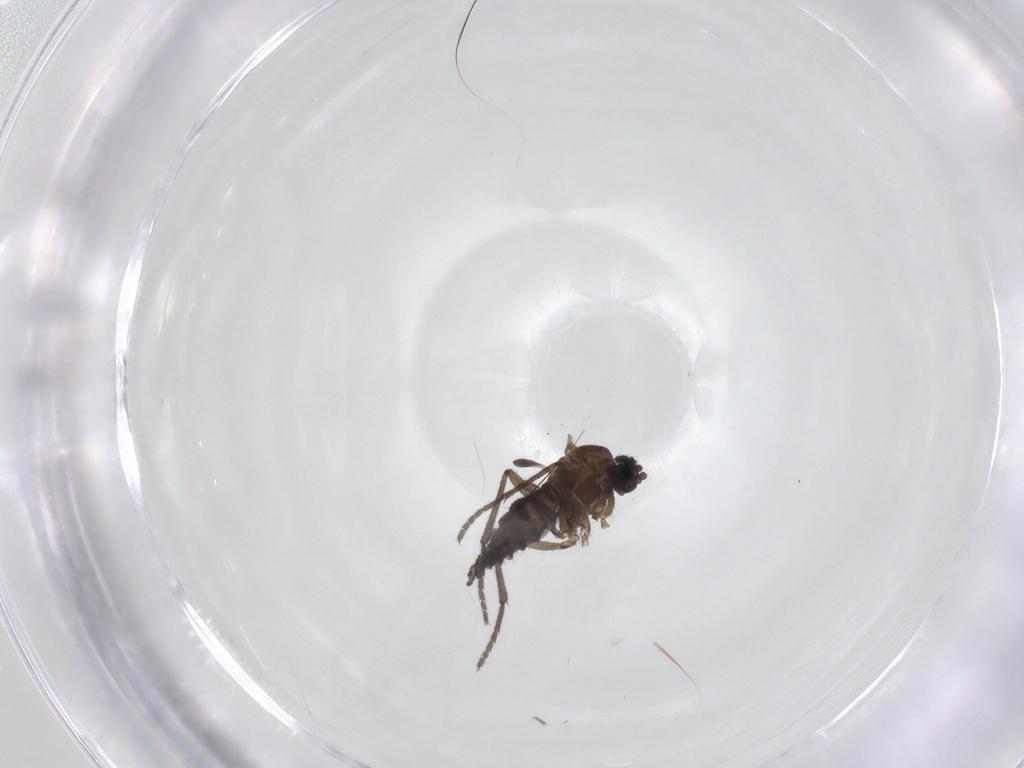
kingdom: Animalia
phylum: Arthropoda
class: Insecta
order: Diptera
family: Sciaridae
